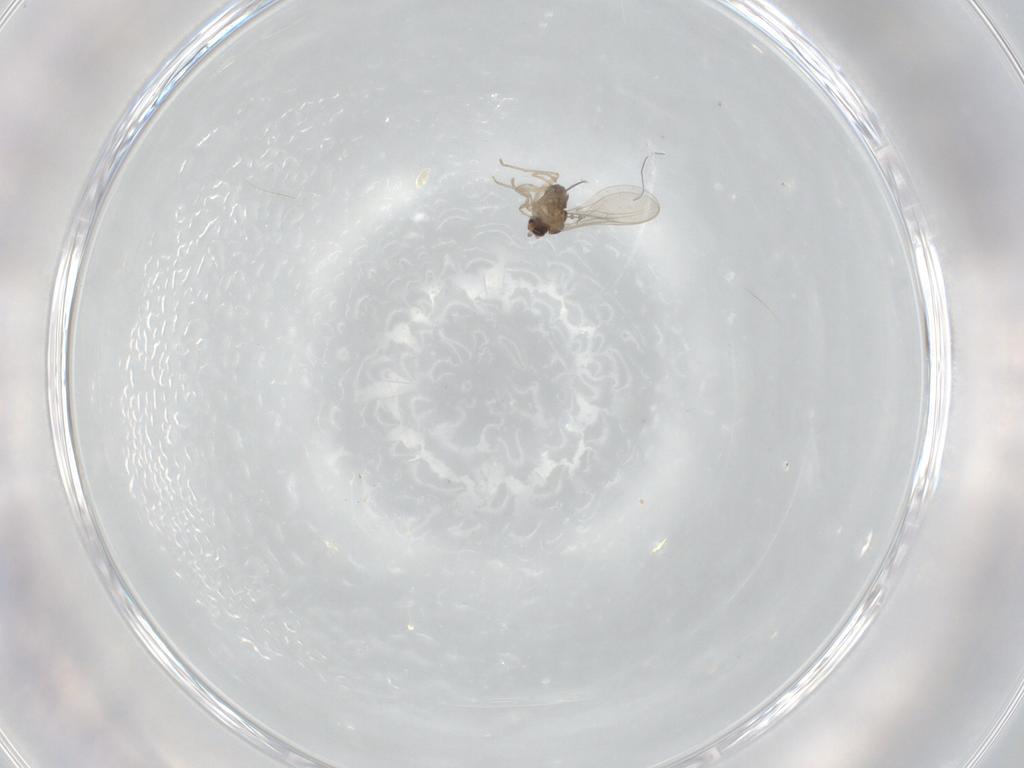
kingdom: Animalia
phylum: Arthropoda
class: Insecta
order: Diptera
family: Cecidomyiidae
